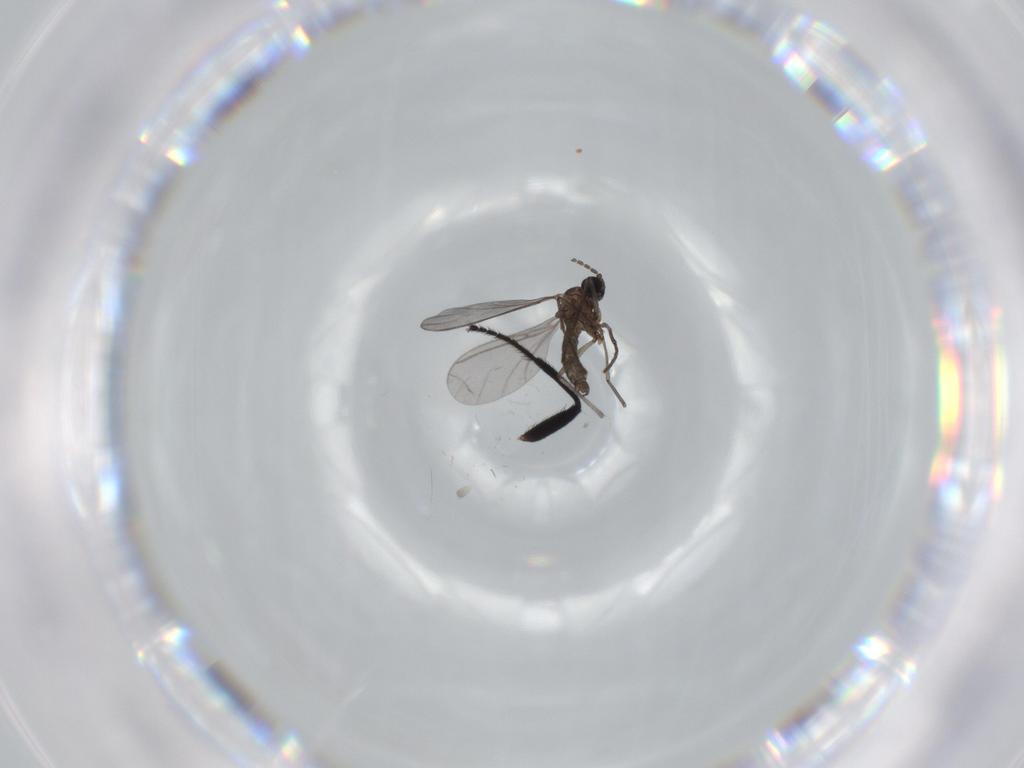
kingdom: Animalia
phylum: Arthropoda
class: Insecta
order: Diptera
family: Sciaridae
